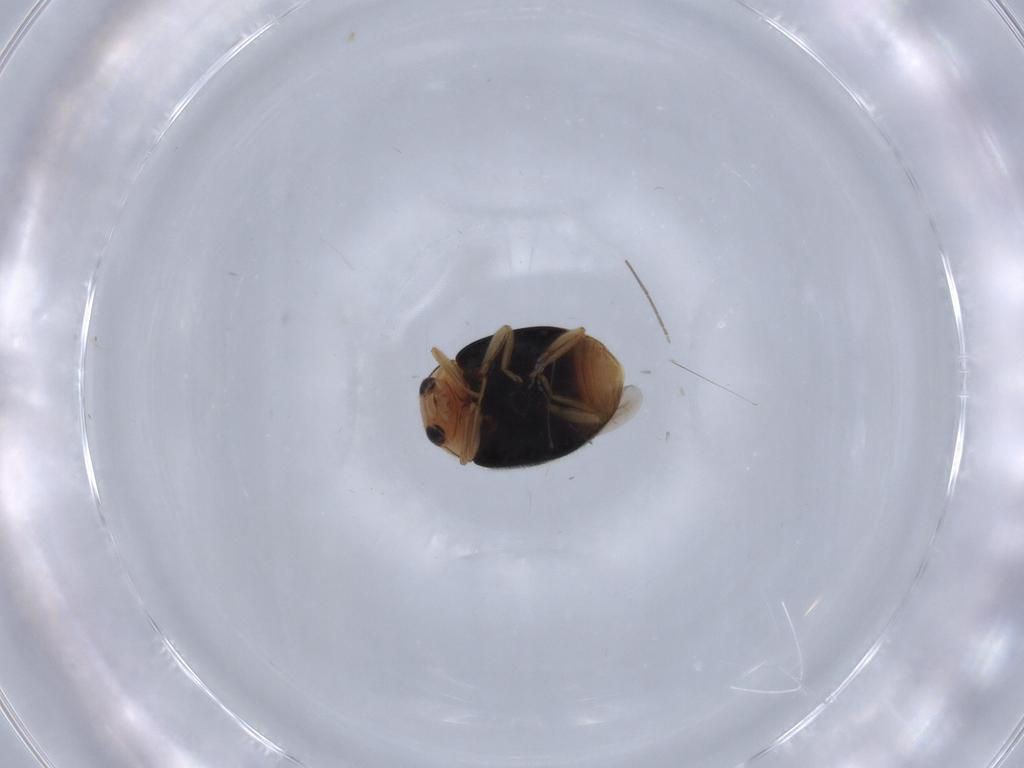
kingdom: Animalia
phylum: Arthropoda
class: Insecta
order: Coleoptera
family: Coccinellidae
